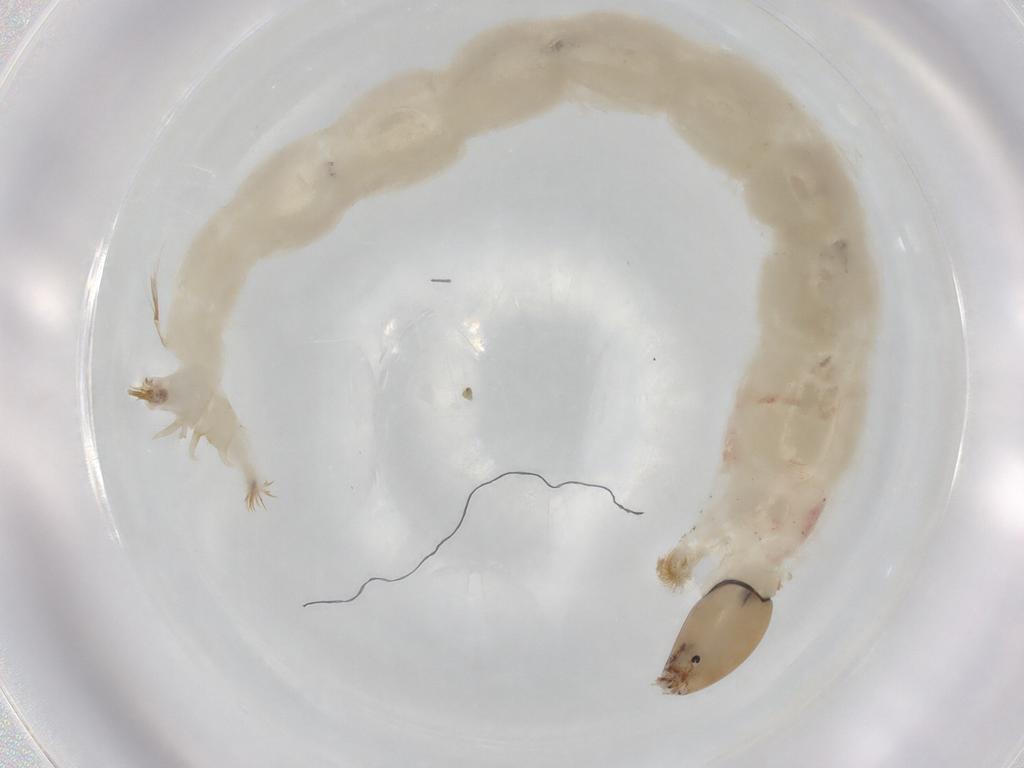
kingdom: Animalia
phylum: Arthropoda
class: Insecta
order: Diptera
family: Chironomidae
